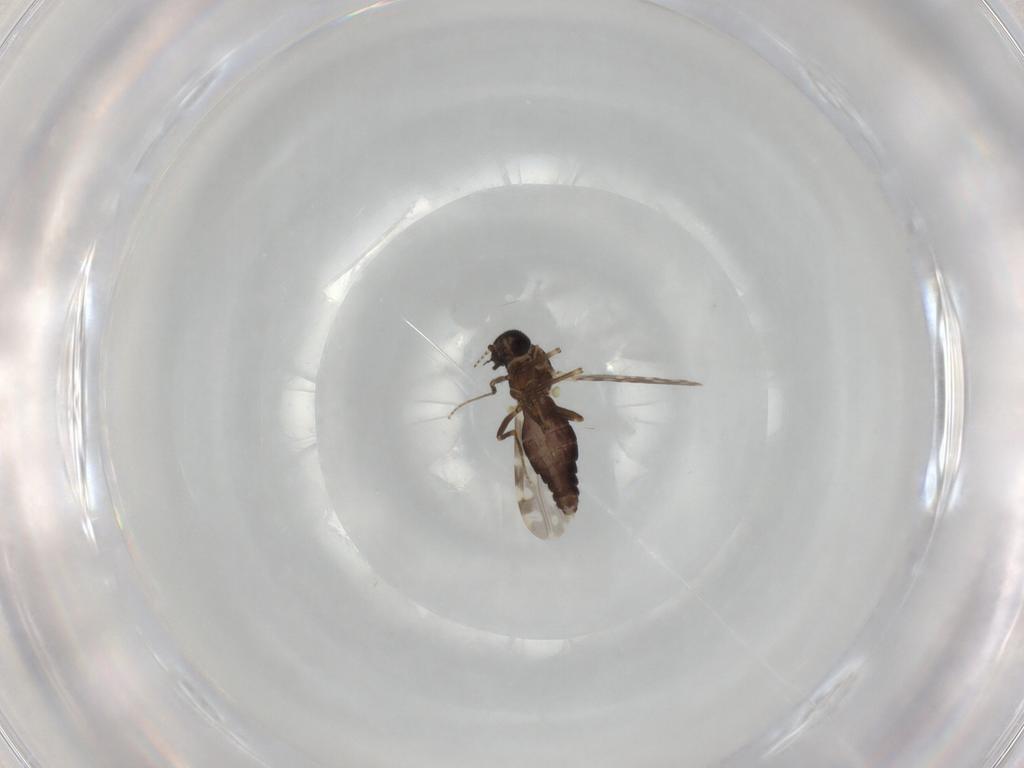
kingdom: Animalia
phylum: Arthropoda
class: Insecta
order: Diptera
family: Ceratopogonidae
